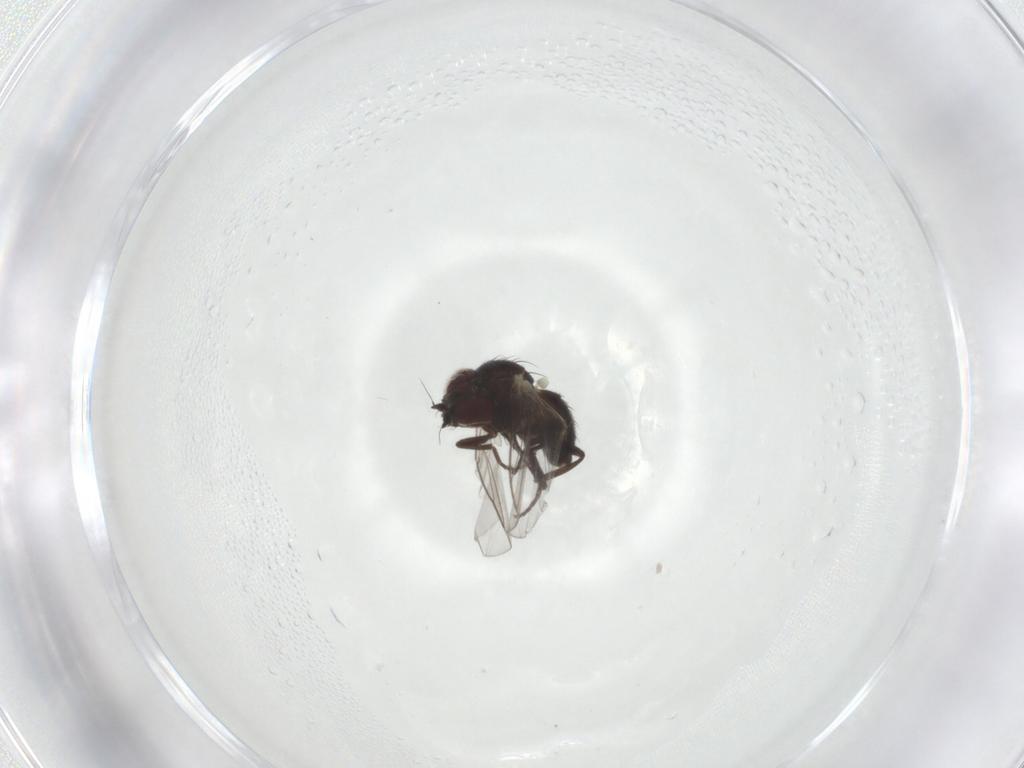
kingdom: Animalia
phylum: Arthropoda
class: Insecta
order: Diptera
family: Agromyzidae
